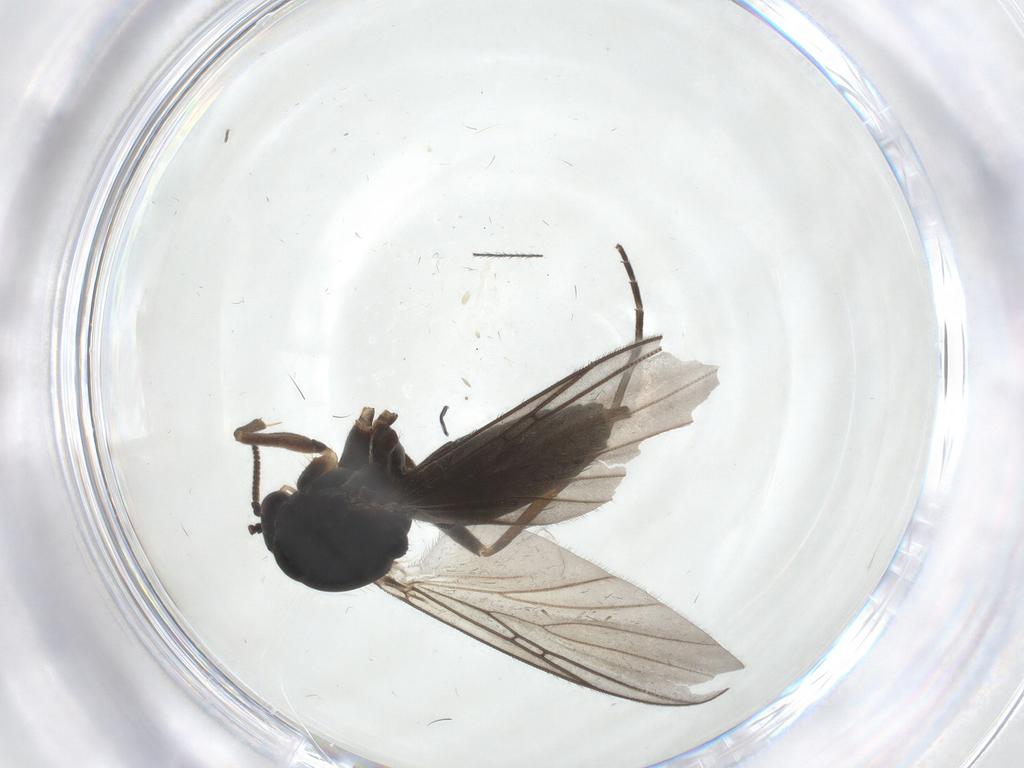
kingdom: Animalia
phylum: Arthropoda
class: Insecta
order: Diptera
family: Mycetophilidae
